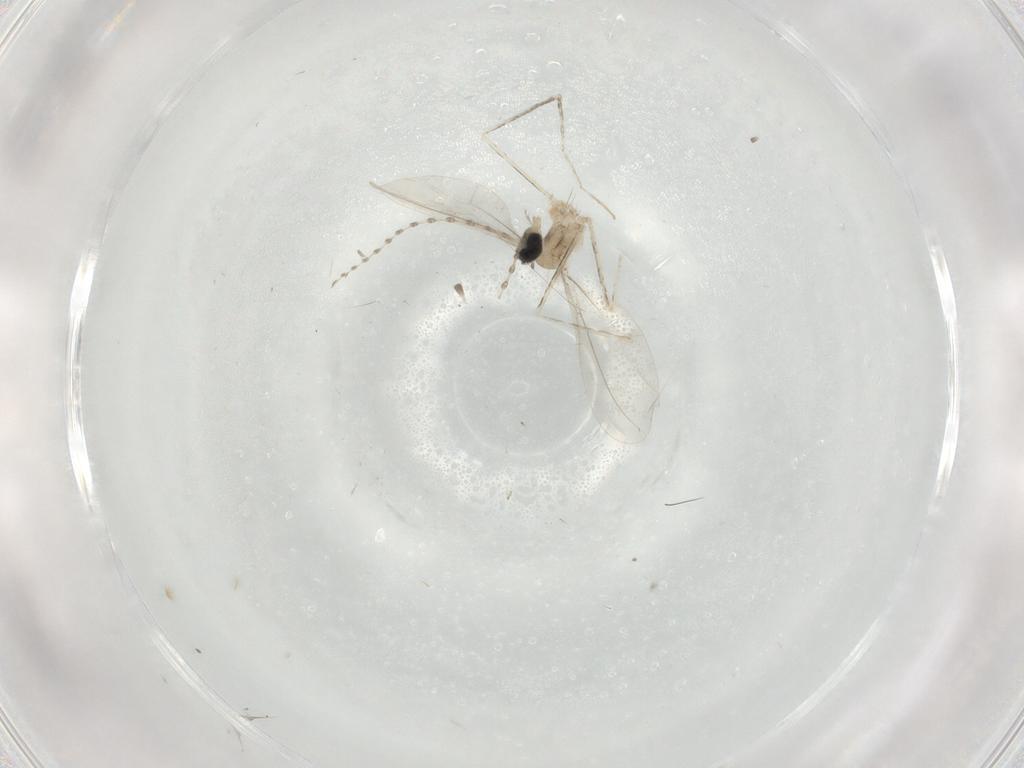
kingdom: Animalia
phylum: Arthropoda
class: Insecta
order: Diptera
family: Cecidomyiidae
